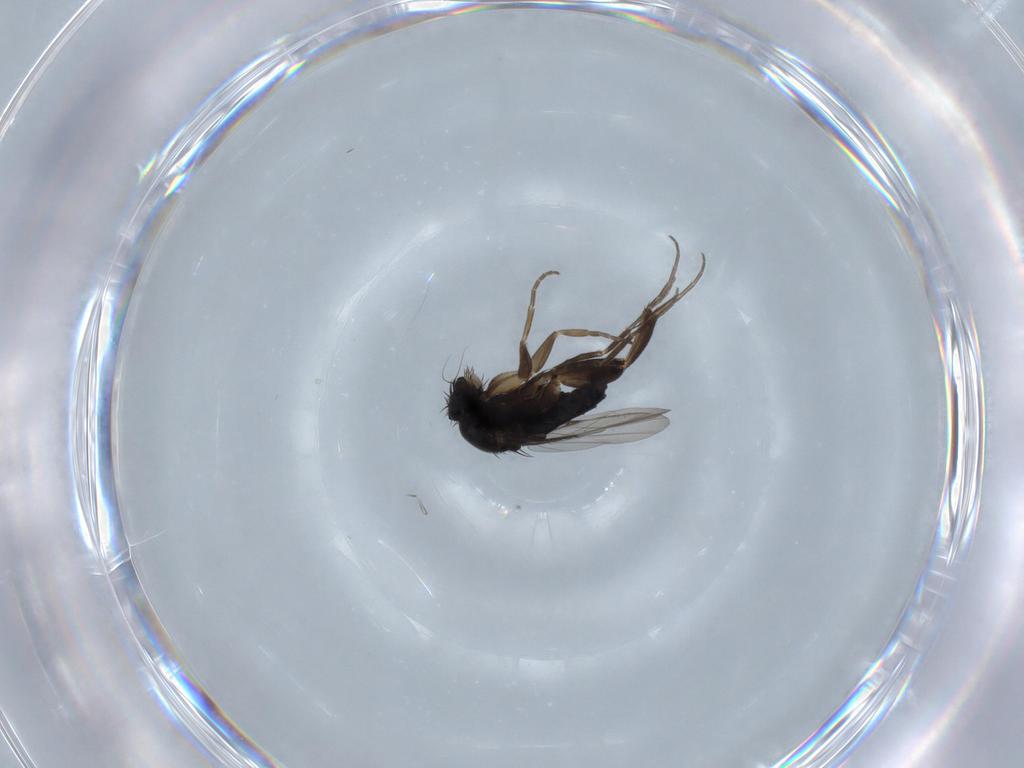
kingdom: Animalia
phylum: Arthropoda
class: Insecta
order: Diptera
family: Phoridae
